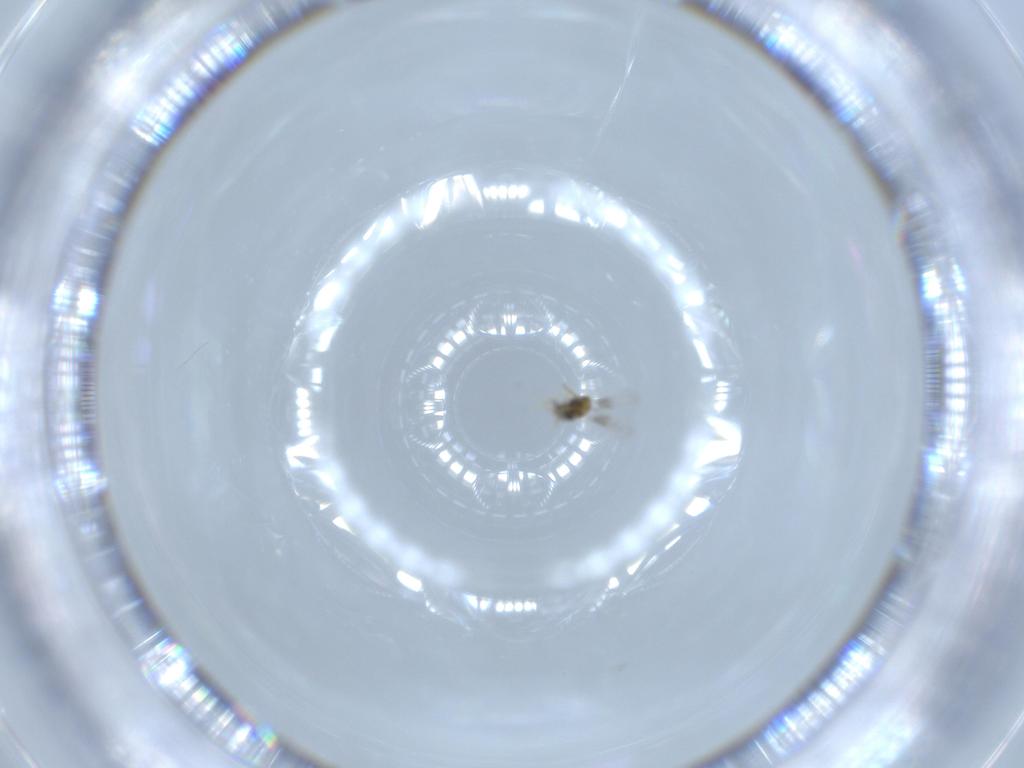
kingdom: Animalia
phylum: Arthropoda
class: Insecta
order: Hymenoptera
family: Aphelinidae
